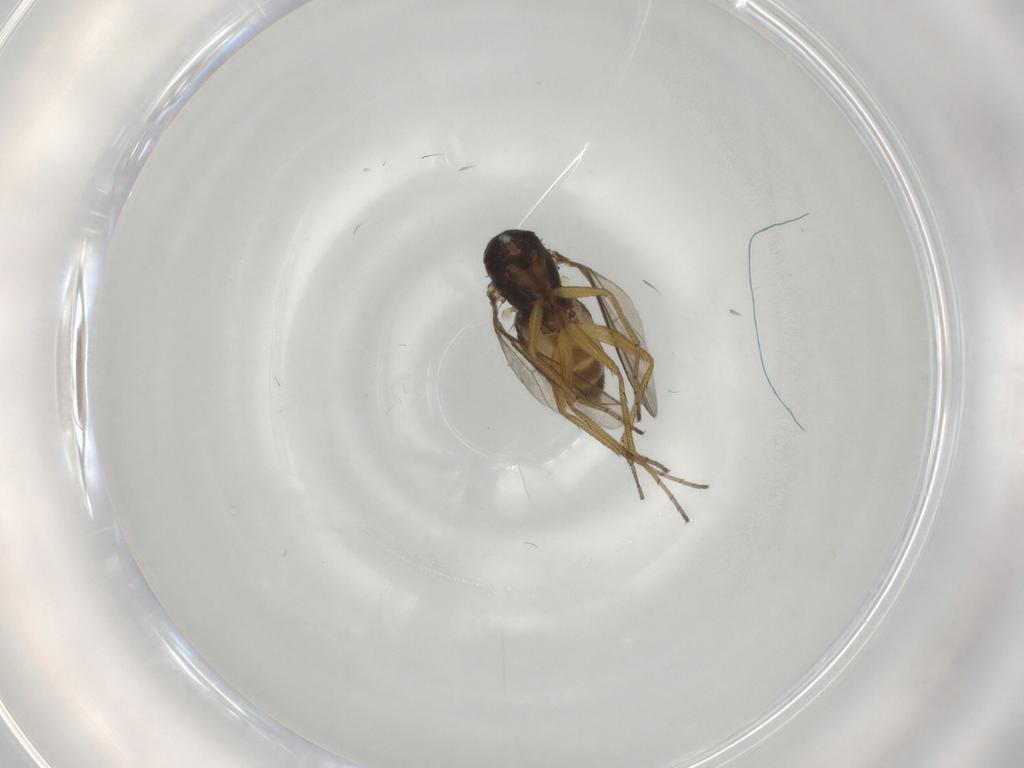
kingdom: Animalia
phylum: Arthropoda
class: Insecta
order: Diptera
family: Dolichopodidae
